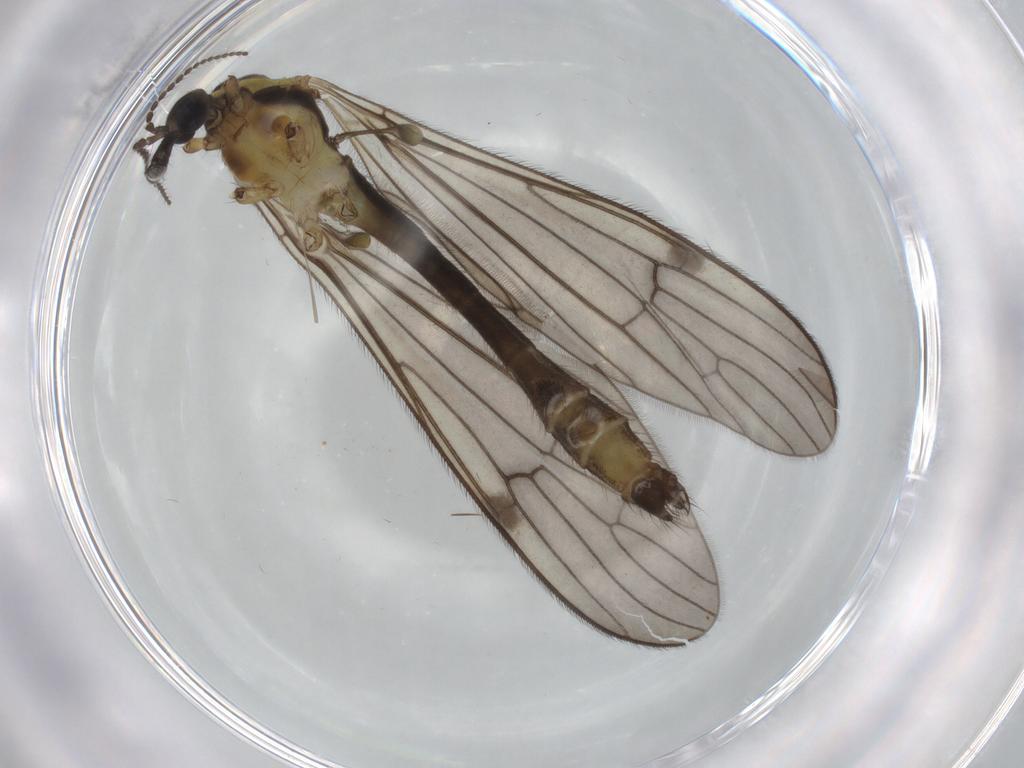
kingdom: Animalia
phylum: Arthropoda
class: Insecta
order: Diptera
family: Limoniidae
